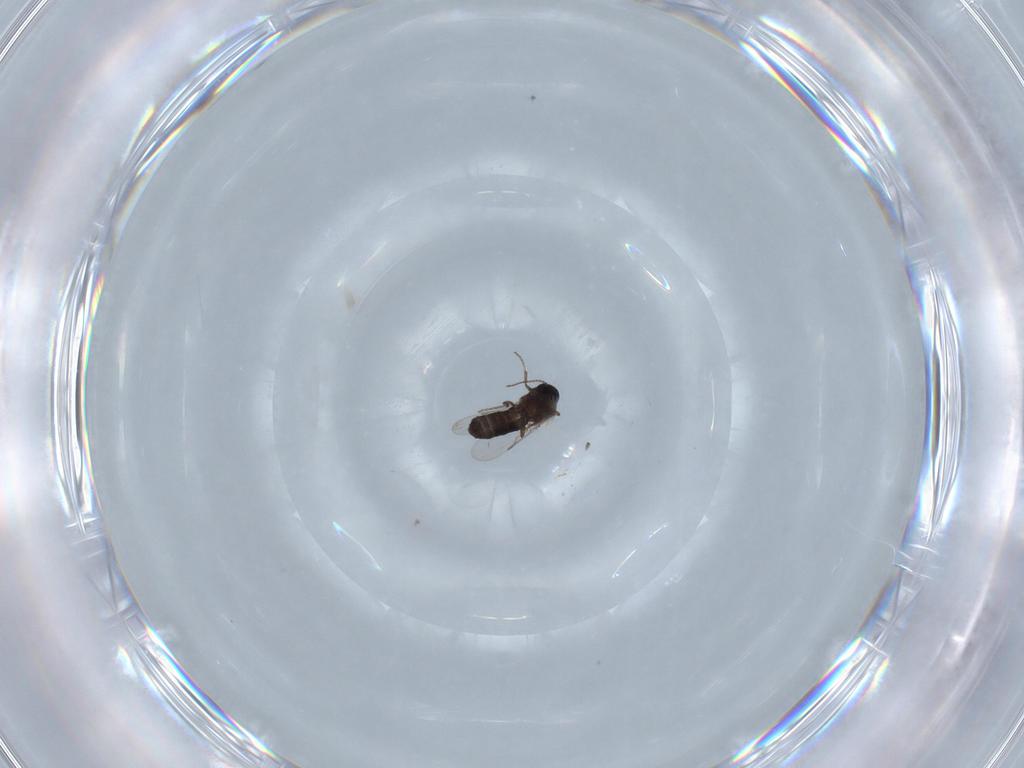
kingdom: Animalia
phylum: Arthropoda
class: Insecta
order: Diptera
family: Ceratopogonidae
